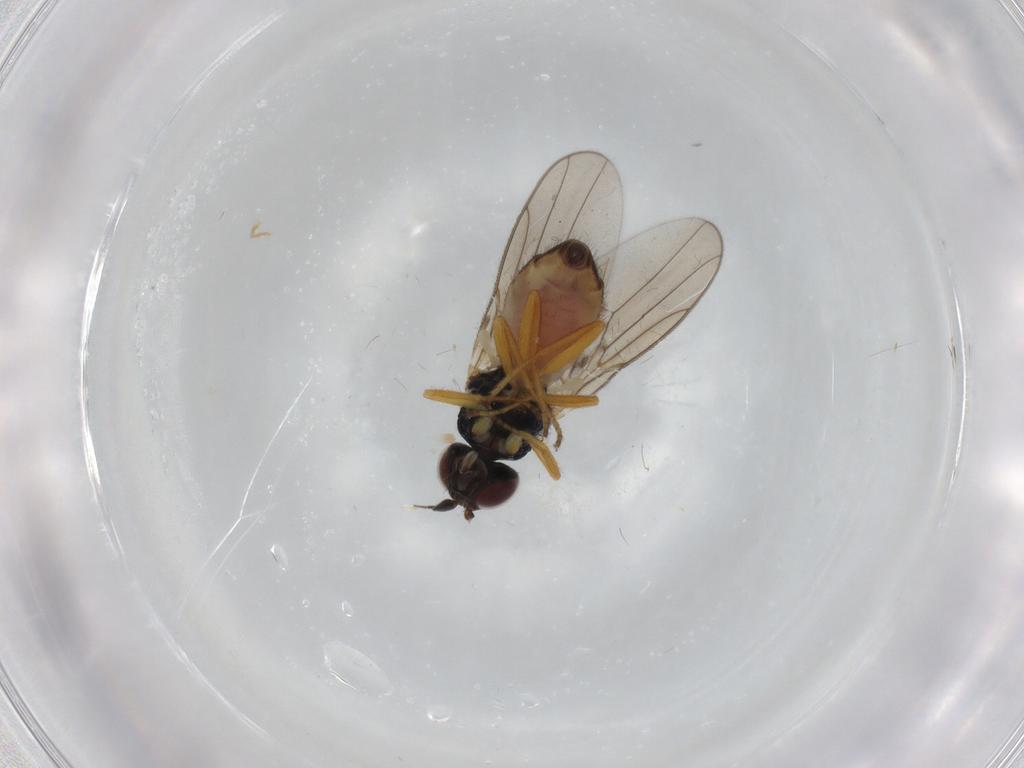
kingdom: Animalia
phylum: Arthropoda
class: Insecta
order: Diptera
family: Chloropidae
